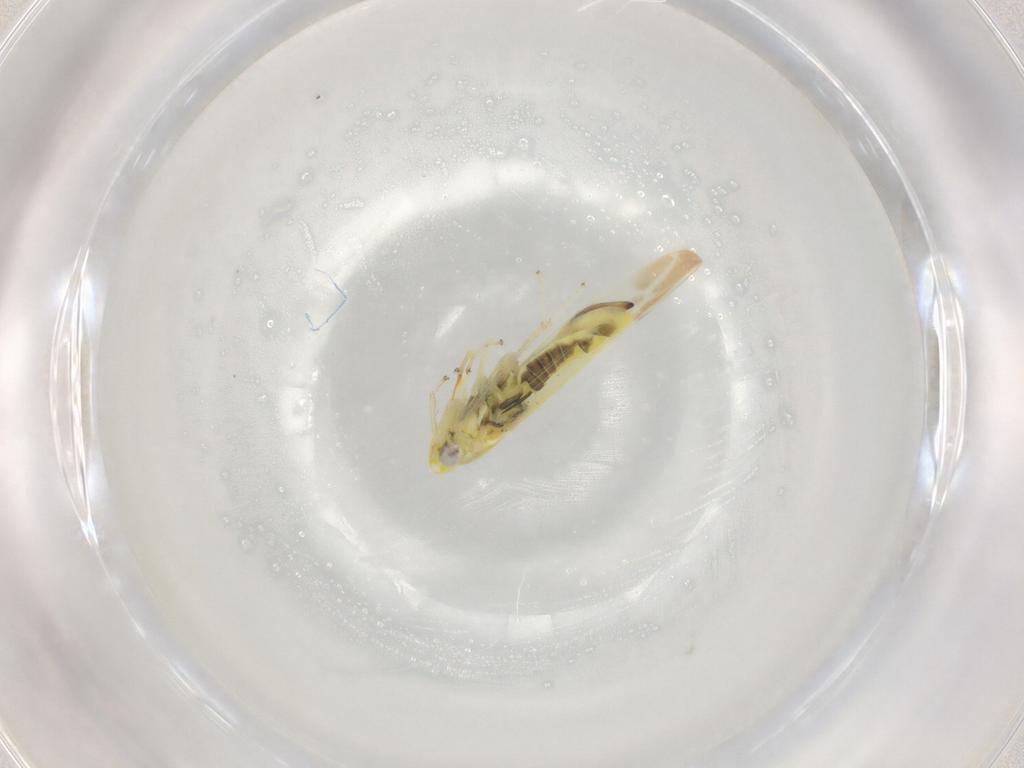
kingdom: Animalia
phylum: Arthropoda
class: Insecta
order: Hemiptera
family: Cicadellidae
